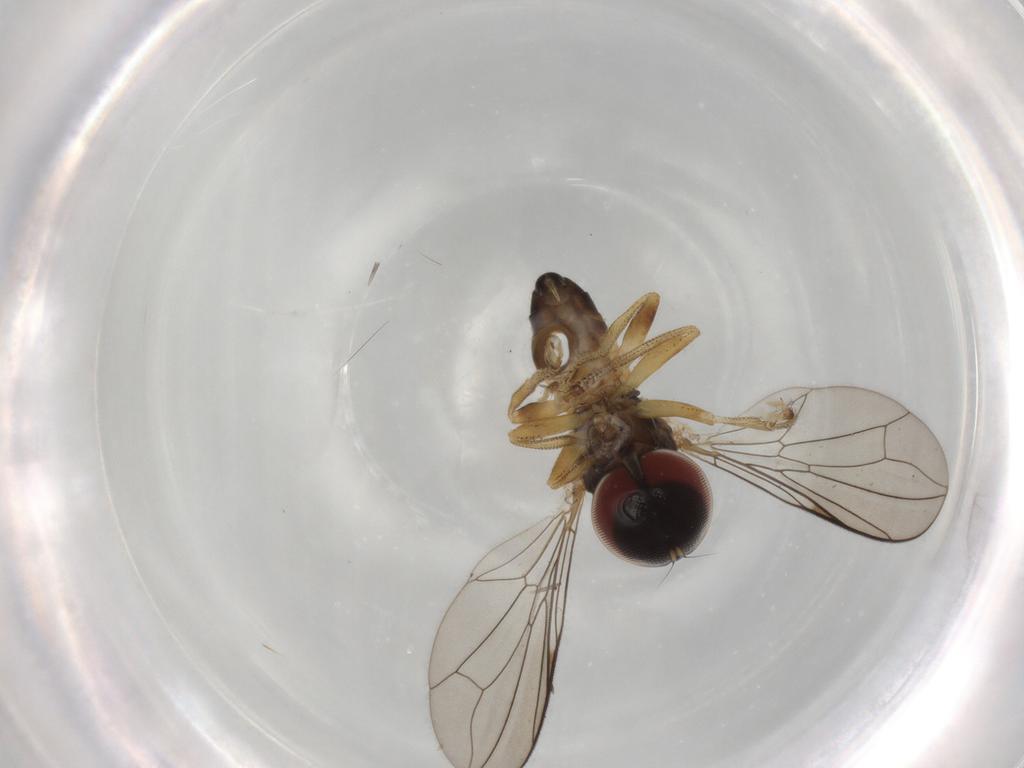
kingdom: Animalia
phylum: Arthropoda
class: Insecta
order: Diptera
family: Pipunculidae
